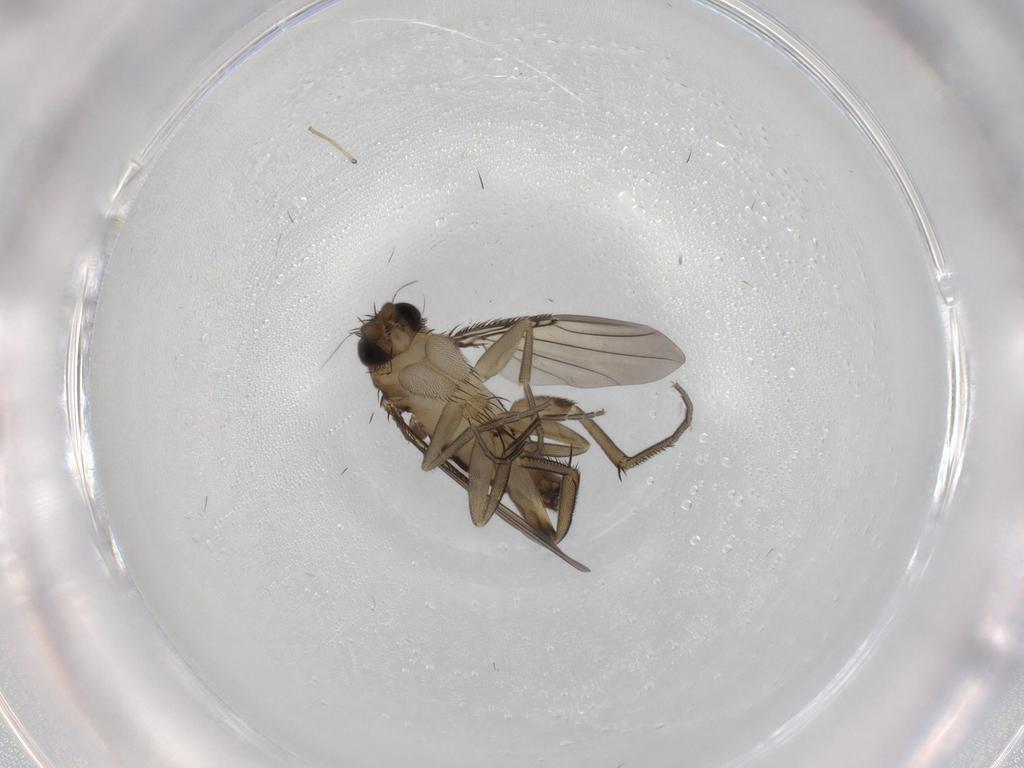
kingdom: Animalia
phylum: Arthropoda
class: Insecta
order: Diptera
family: Phoridae
